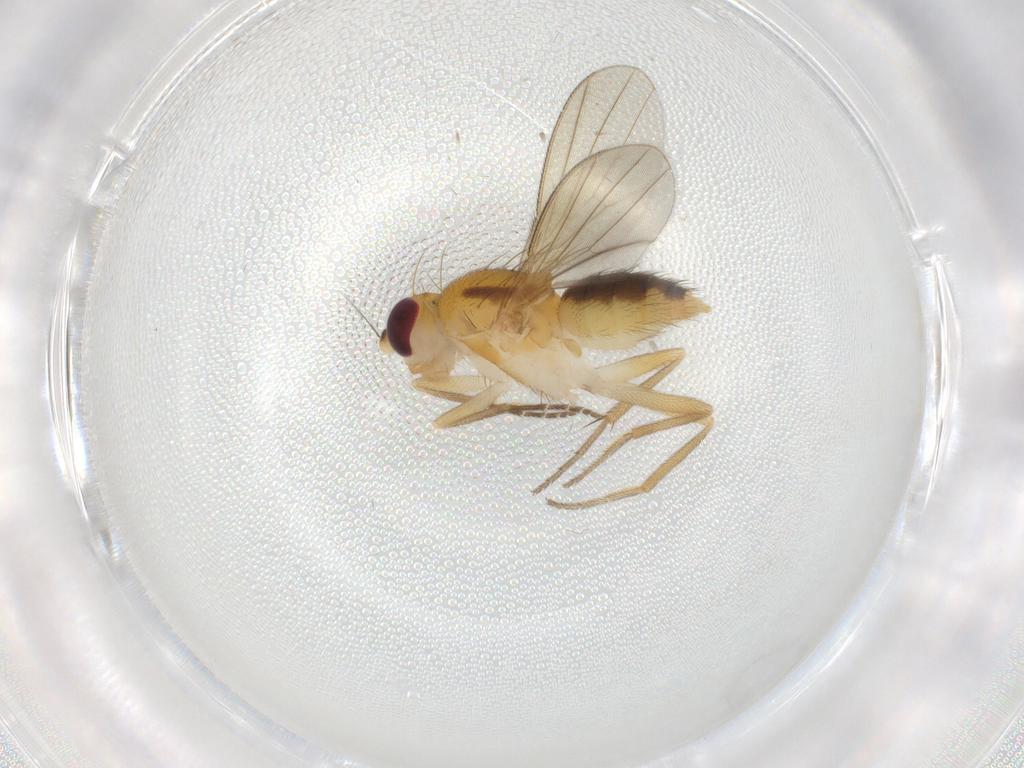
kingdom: Animalia
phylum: Arthropoda
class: Insecta
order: Diptera
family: Clusiidae
